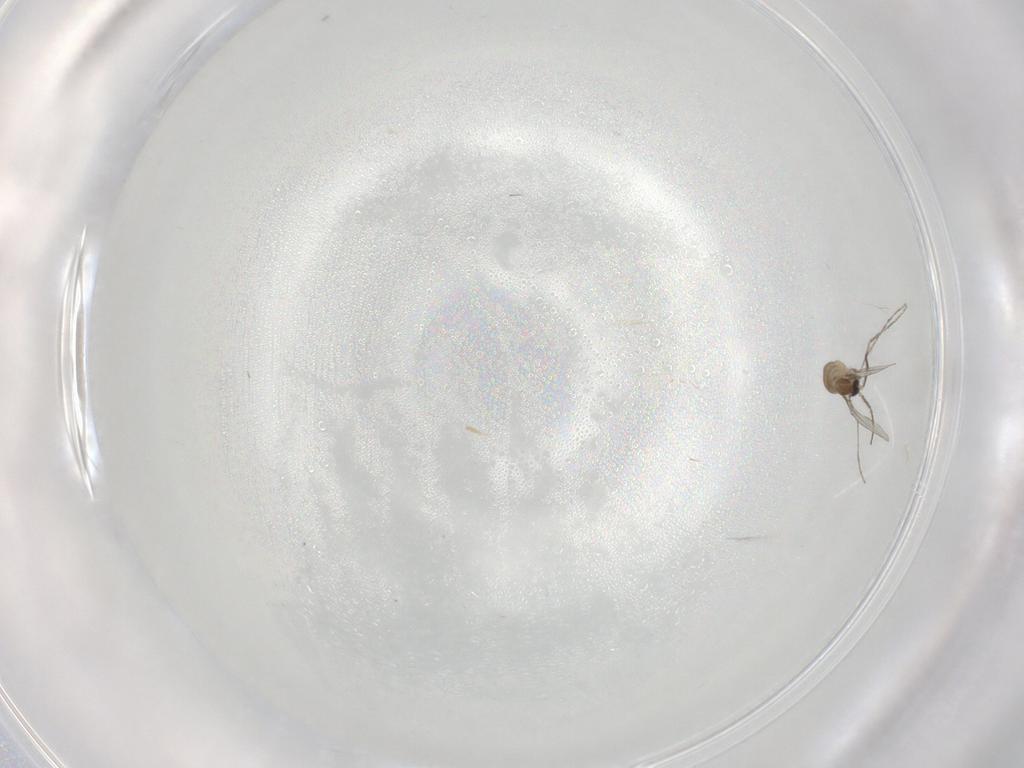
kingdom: Animalia
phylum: Arthropoda
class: Insecta
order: Diptera
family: Cecidomyiidae
